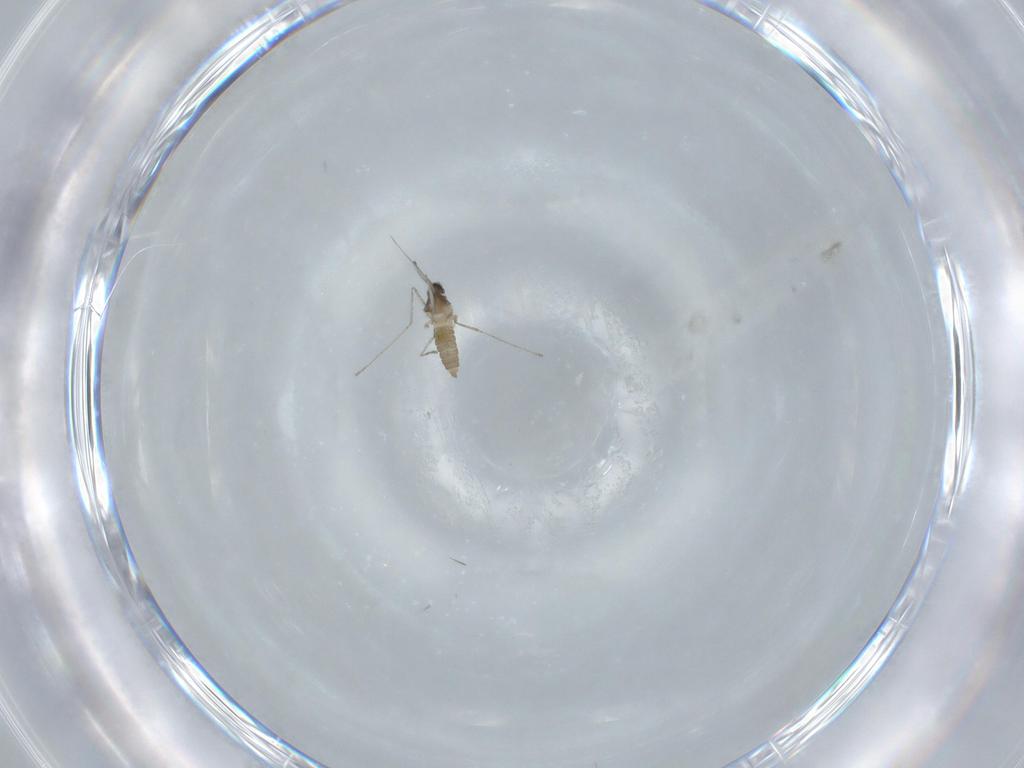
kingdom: Animalia
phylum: Arthropoda
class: Insecta
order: Diptera
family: Cecidomyiidae
